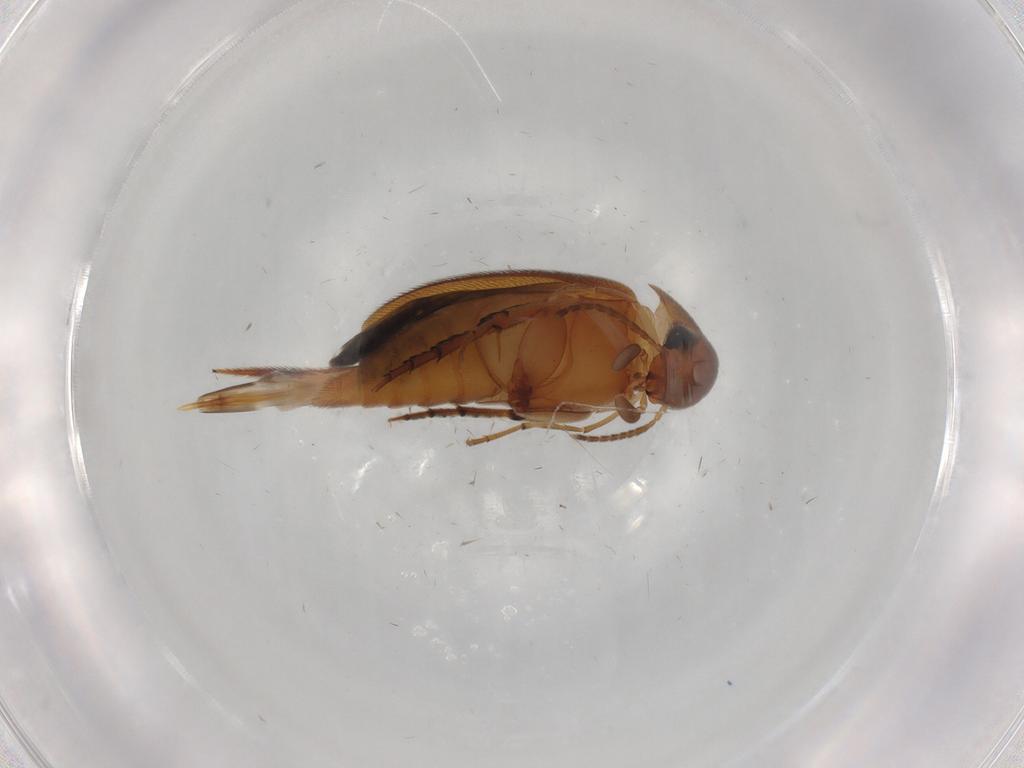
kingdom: Animalia
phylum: Arthropoda
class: Insecta
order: Coleoptera
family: Mordellidae
